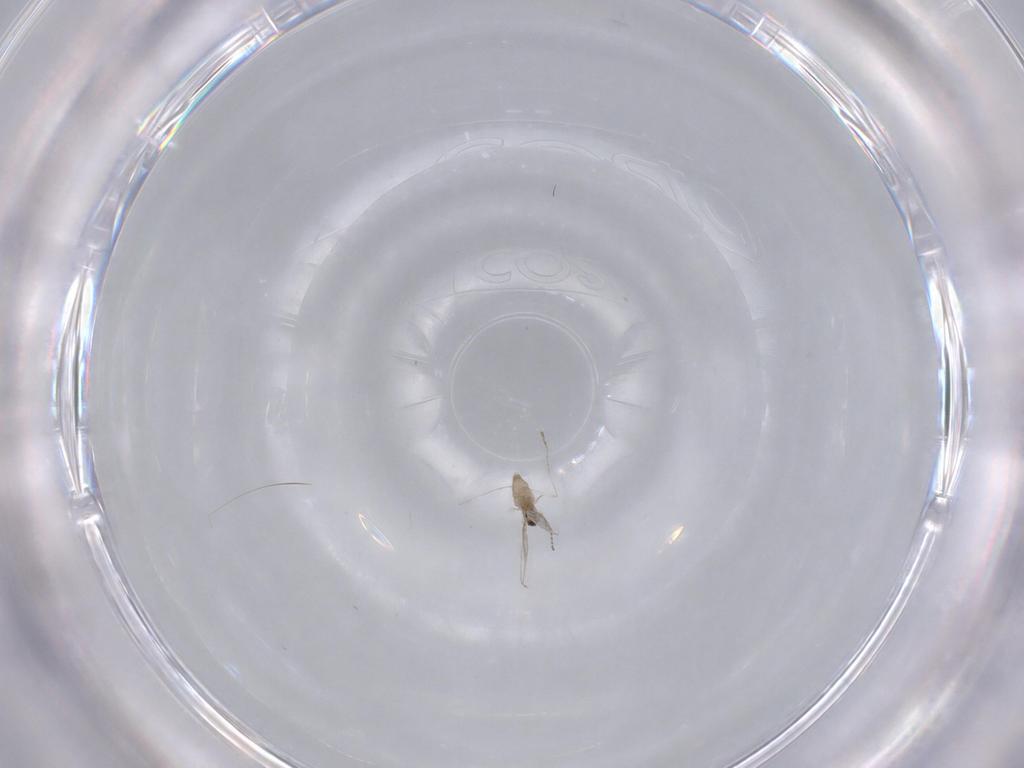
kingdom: Animalia
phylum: Arthropoda
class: Insecta
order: Diptera
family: Cecidomyiidae
